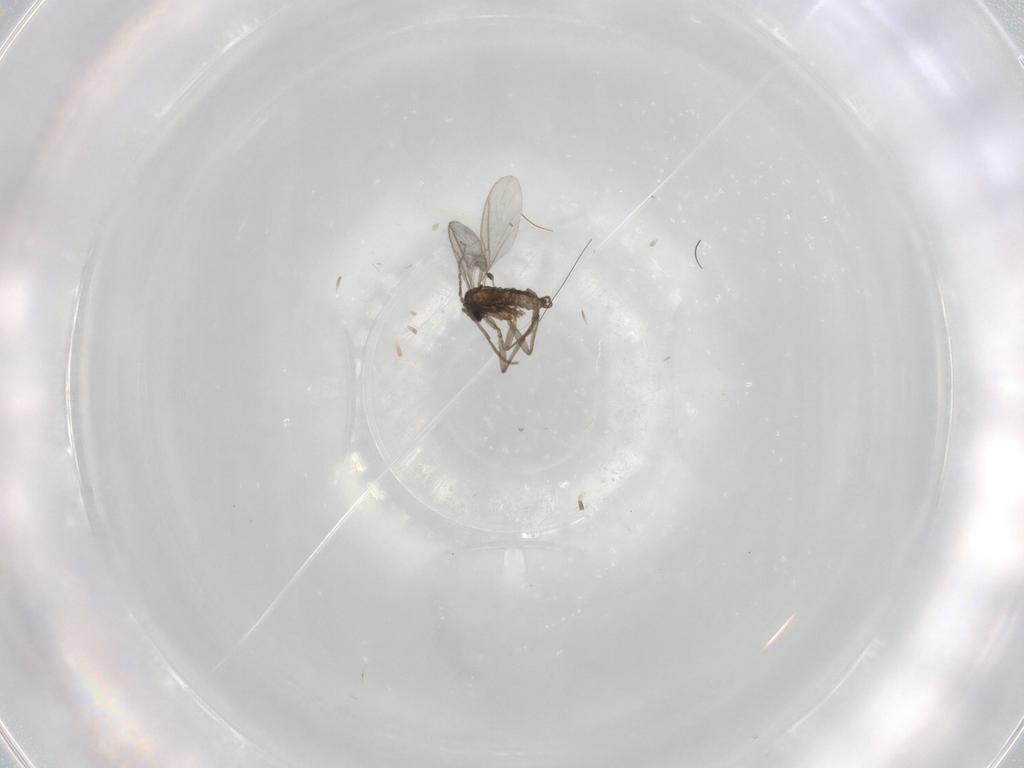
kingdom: Animalia
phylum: Arthropoda
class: Insecta
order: Diptera
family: Sciaridae
